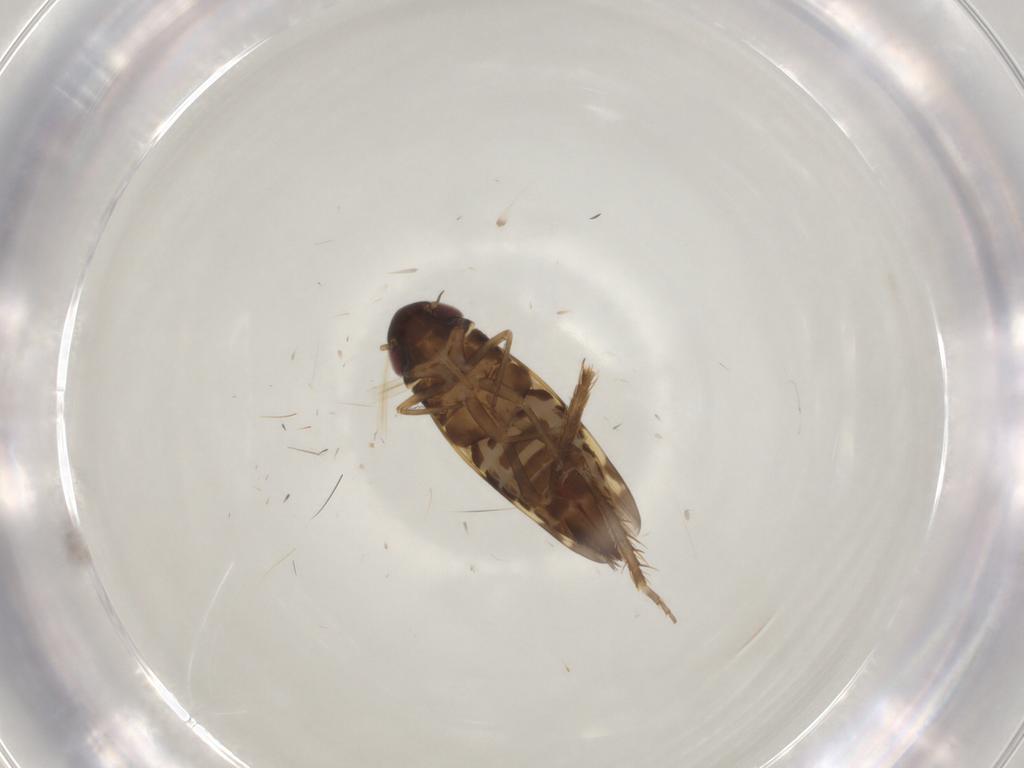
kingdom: Animalia
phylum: Arthropoda
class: Insecta
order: Hemiptera
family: Cicadellidae
